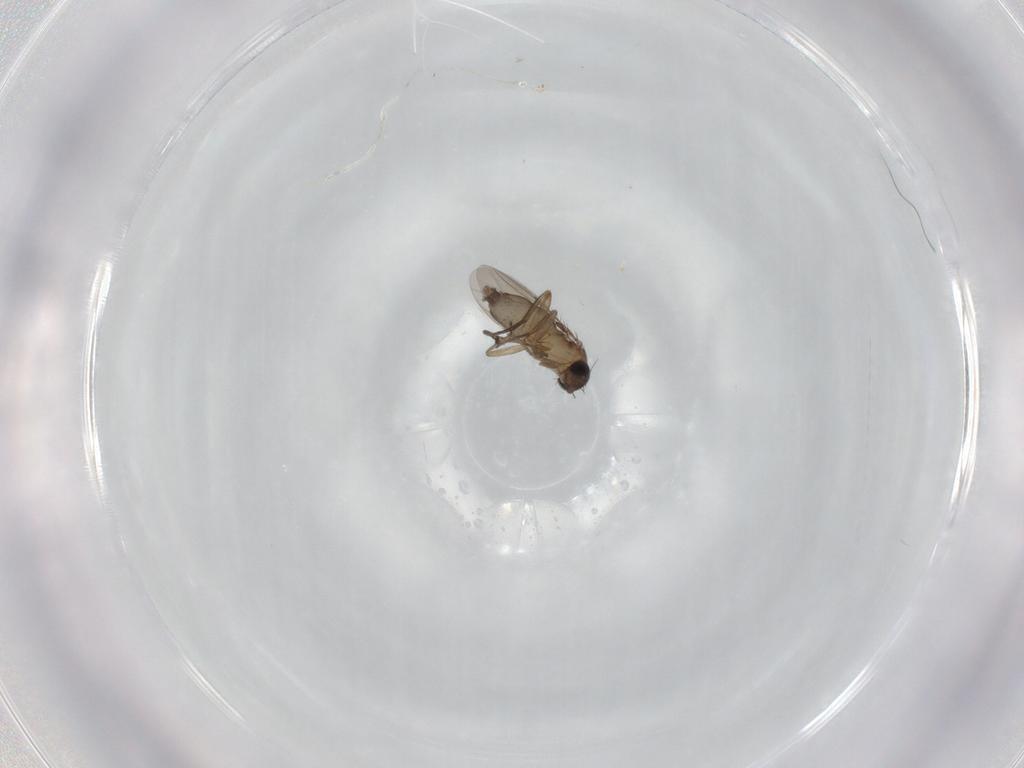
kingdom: Animalia
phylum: Arthropoda
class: Insecta
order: Diptera
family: Phoridae
